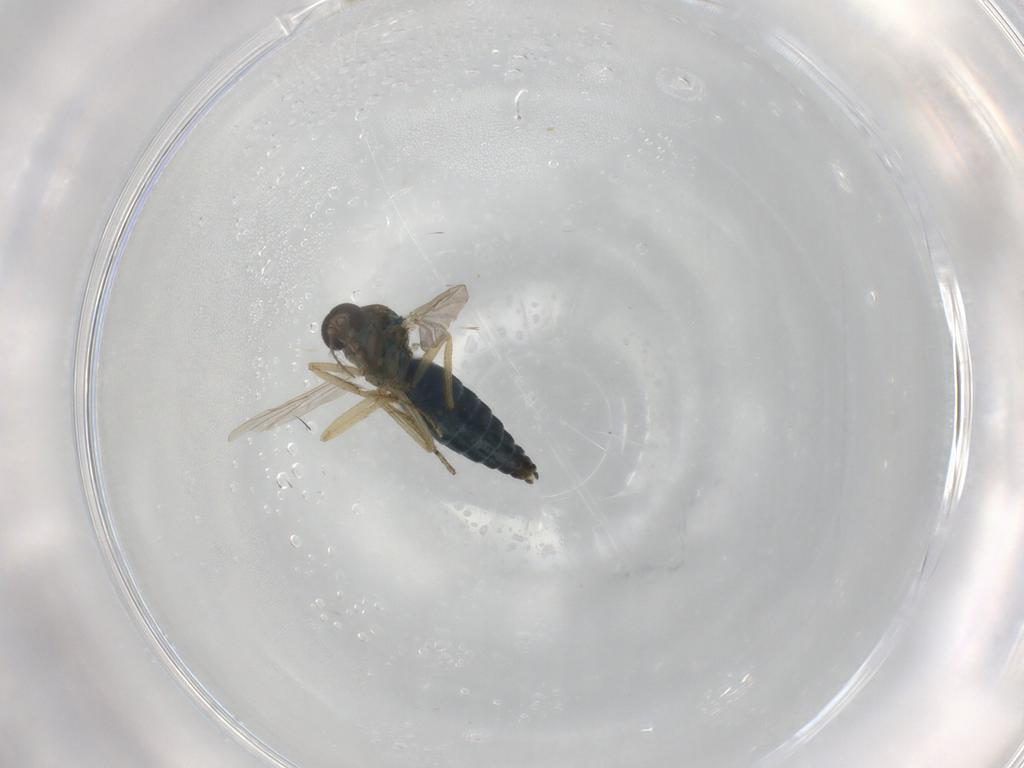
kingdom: Animalia
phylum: Arthropoda
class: Insecta
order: Diptera
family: Ceratopogonidae
